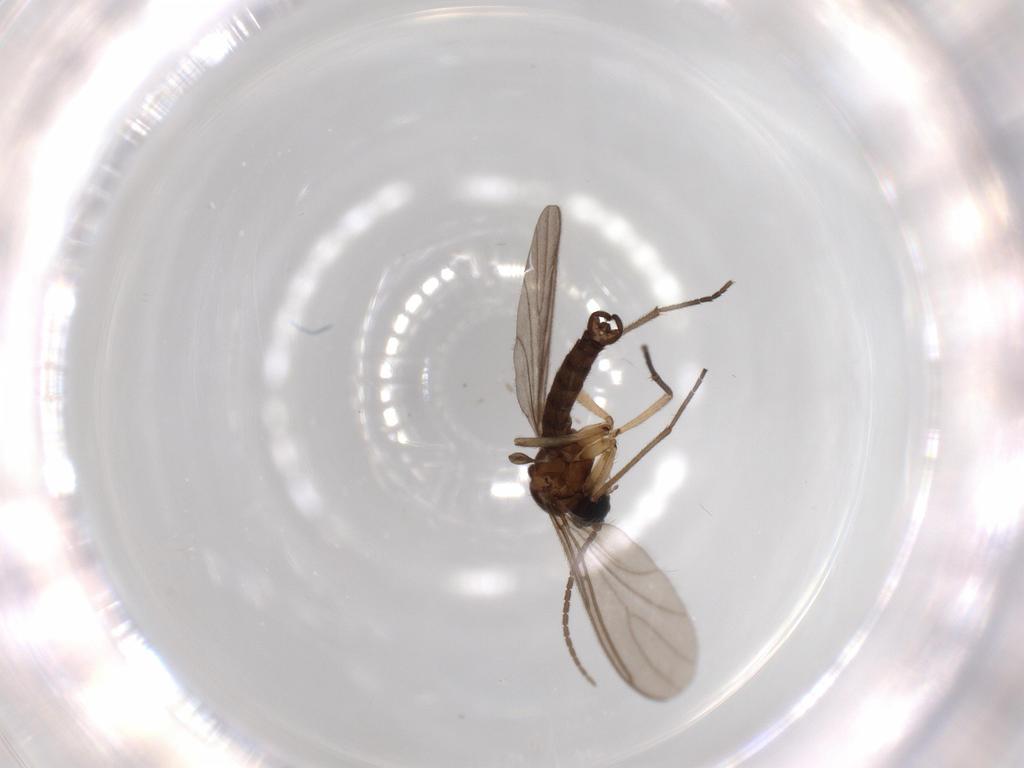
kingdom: Animalia
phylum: Arthropoda
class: Insecta
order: Diptera
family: Sciaridae
